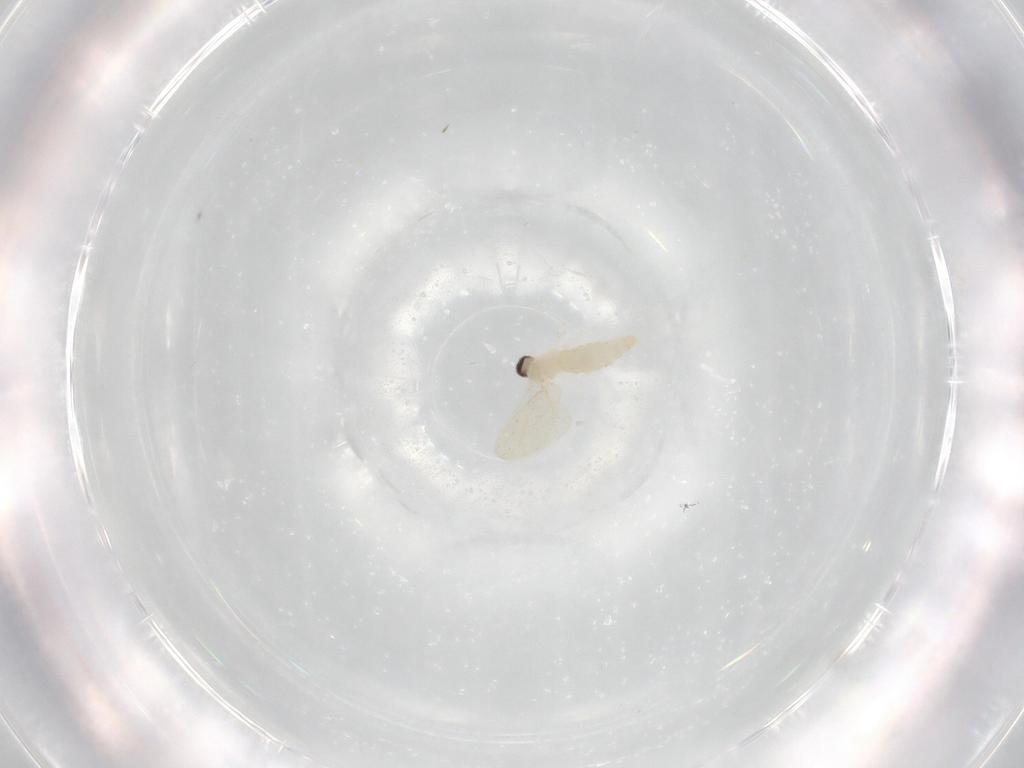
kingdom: Animalia
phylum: Arthropoda
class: Insecta
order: Diptera
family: Cecidomyiidae
